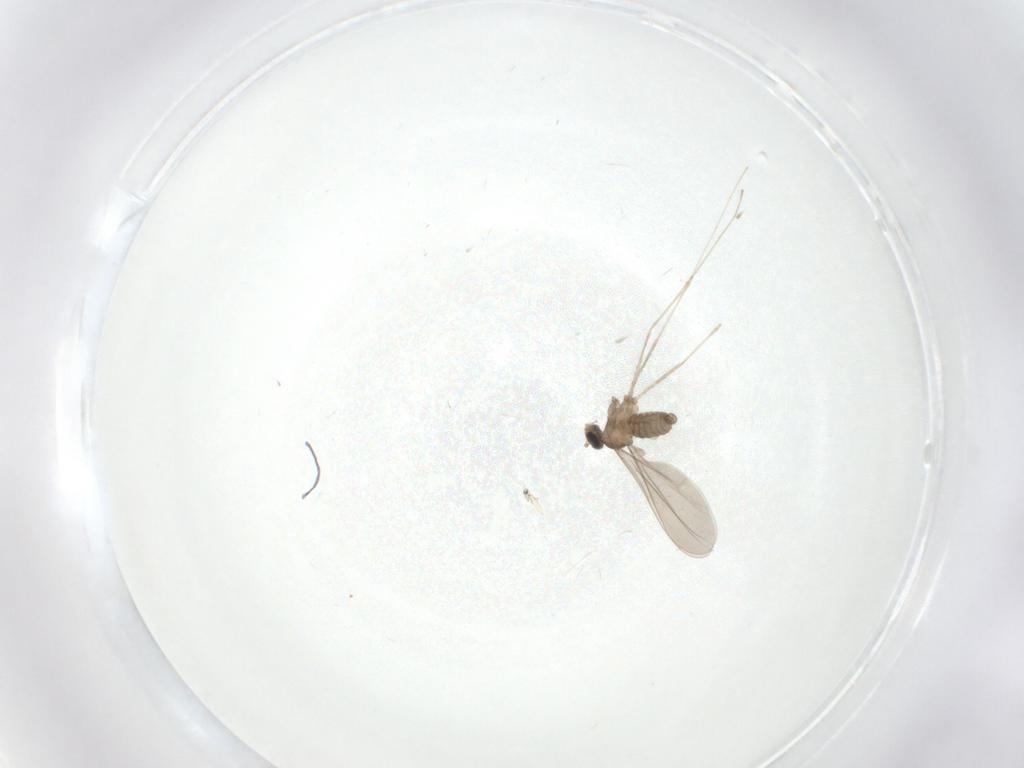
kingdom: Animalia
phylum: Arthropoda
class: Insecta
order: Diptera
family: Cecidomyiidae
